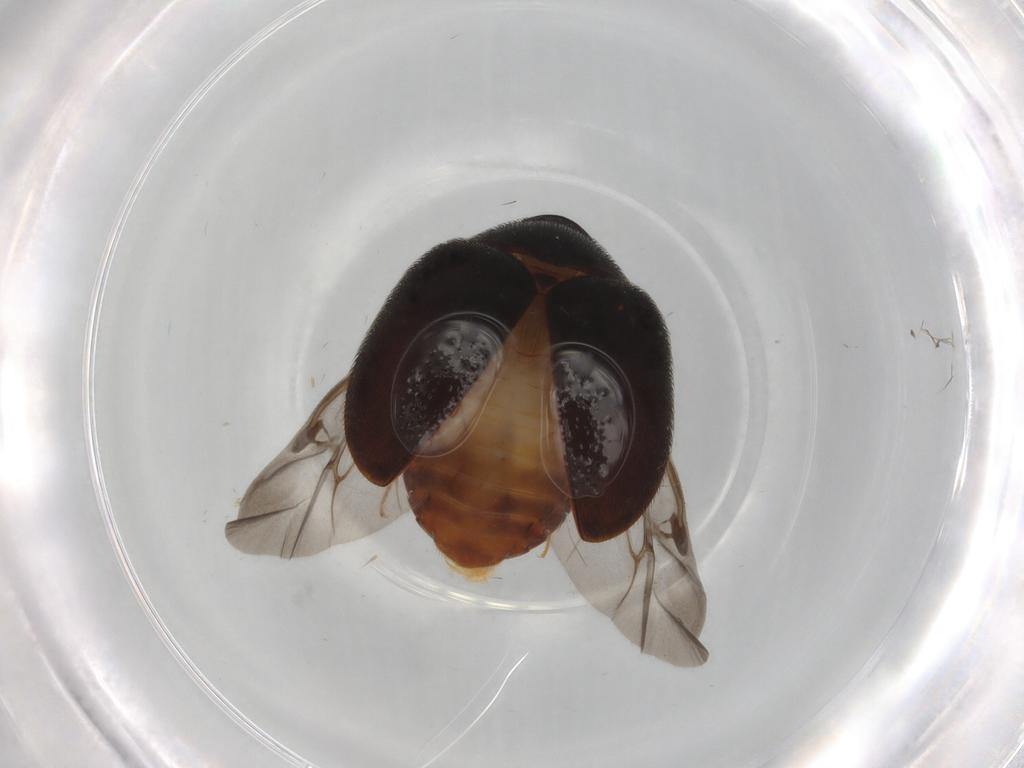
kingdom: Animalia
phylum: Arthropoda
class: Insecta
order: Coleoptera
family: Dermestidae
